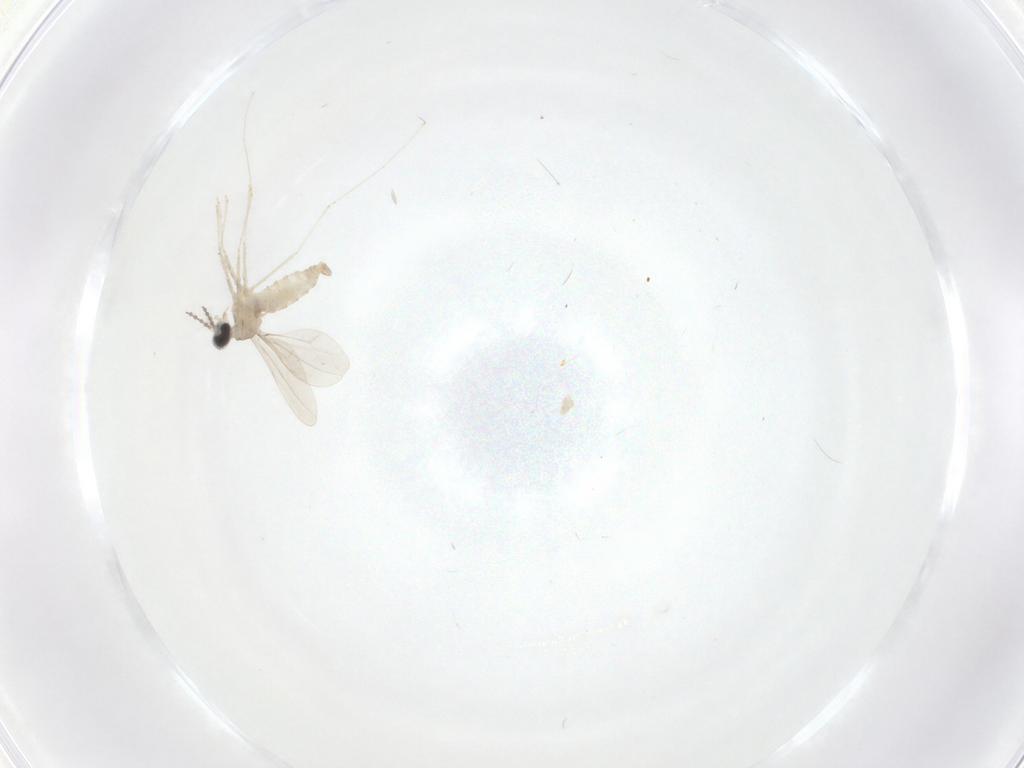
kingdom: Animalia
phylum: Arthropoda
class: Insecta
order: Diptera
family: Cecidomyiidae
